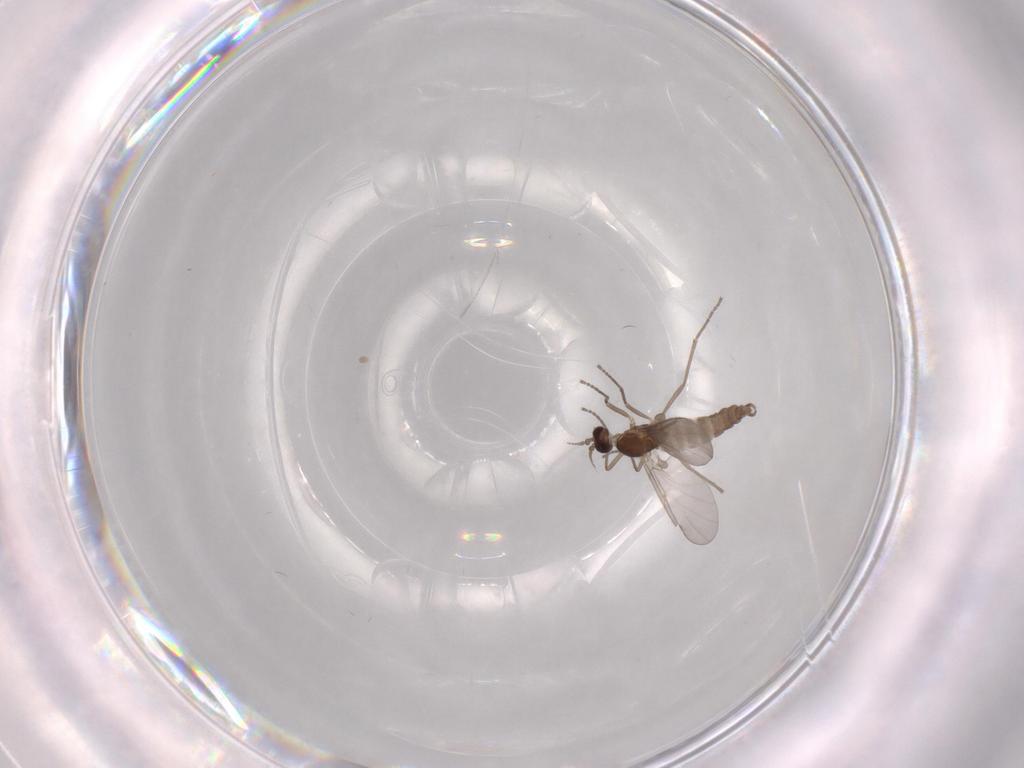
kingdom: Animalia
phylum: Arthropoda
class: Insecta
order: Diptera
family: Cecidomyiidae
